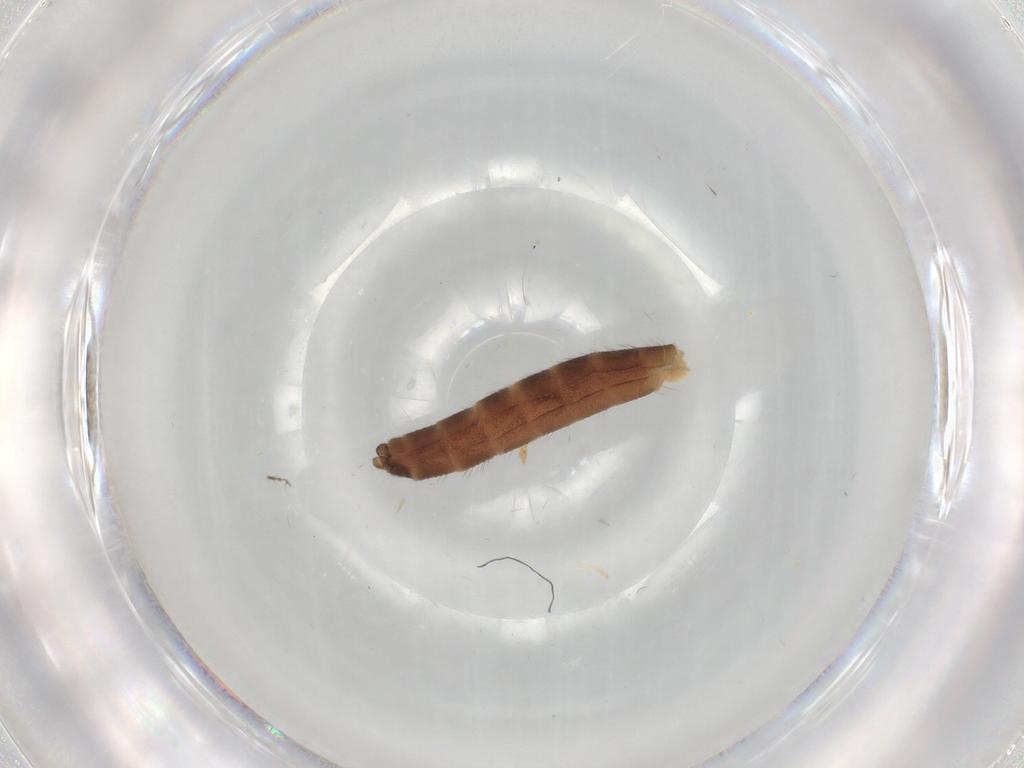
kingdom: Animalia
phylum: Arthropoda
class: Insecta
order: Diptera
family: Chironomidae
